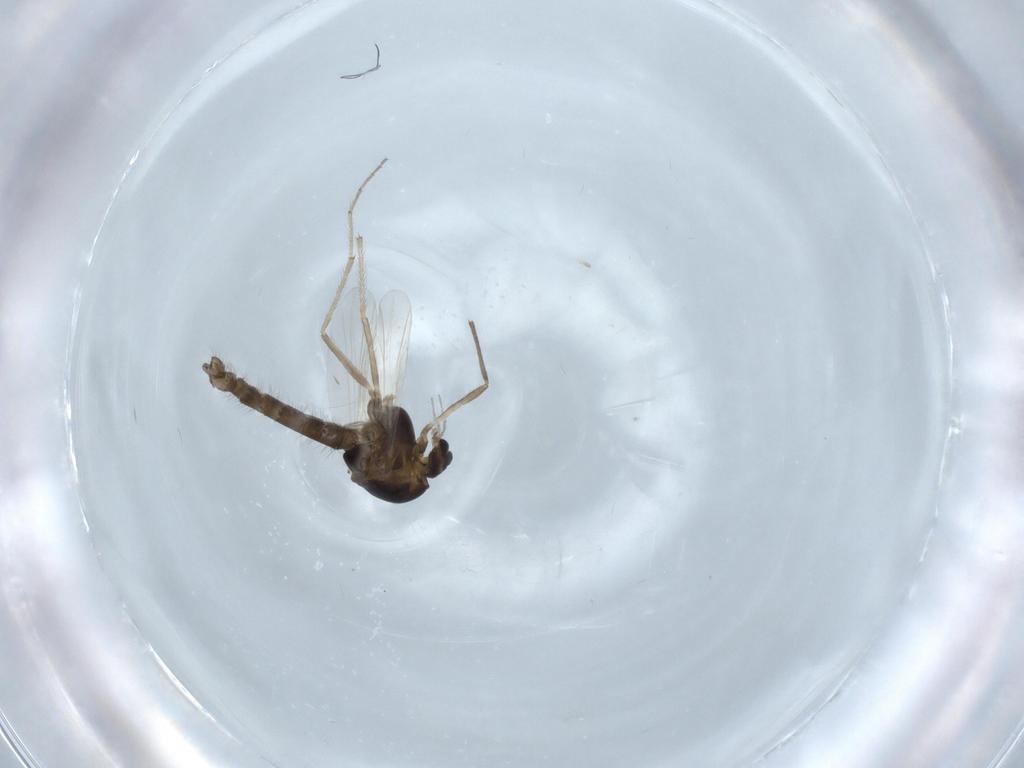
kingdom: Animalia
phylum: Arthropoda
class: Insecta
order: Diptera
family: Chironomidae
